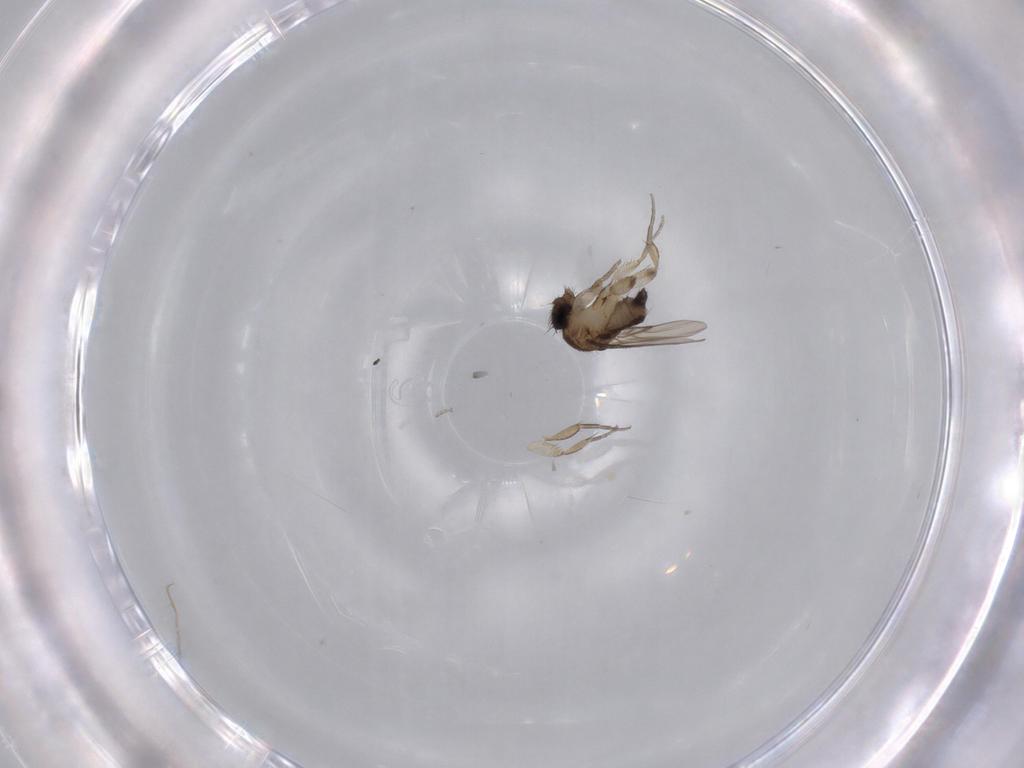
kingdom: Animalia
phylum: Arthropoda
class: Insecta
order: Diptera
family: Phoridae
